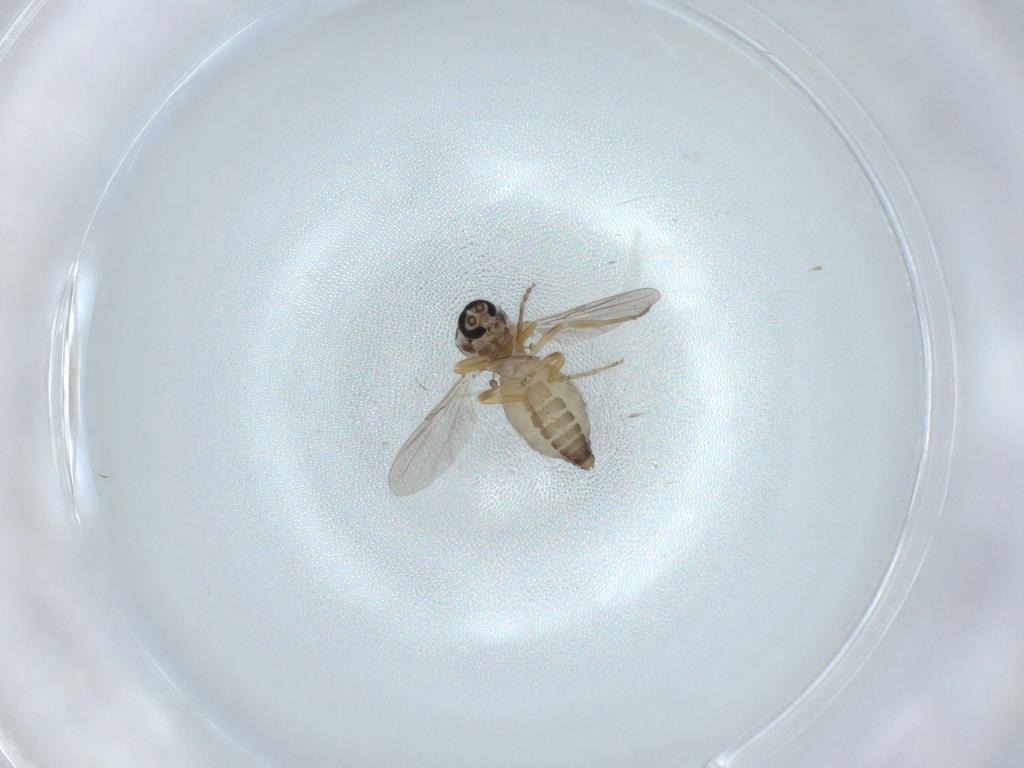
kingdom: Animalia
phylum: Arthropoda
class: Insecta
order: Diptera
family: Ceratopogonidae
